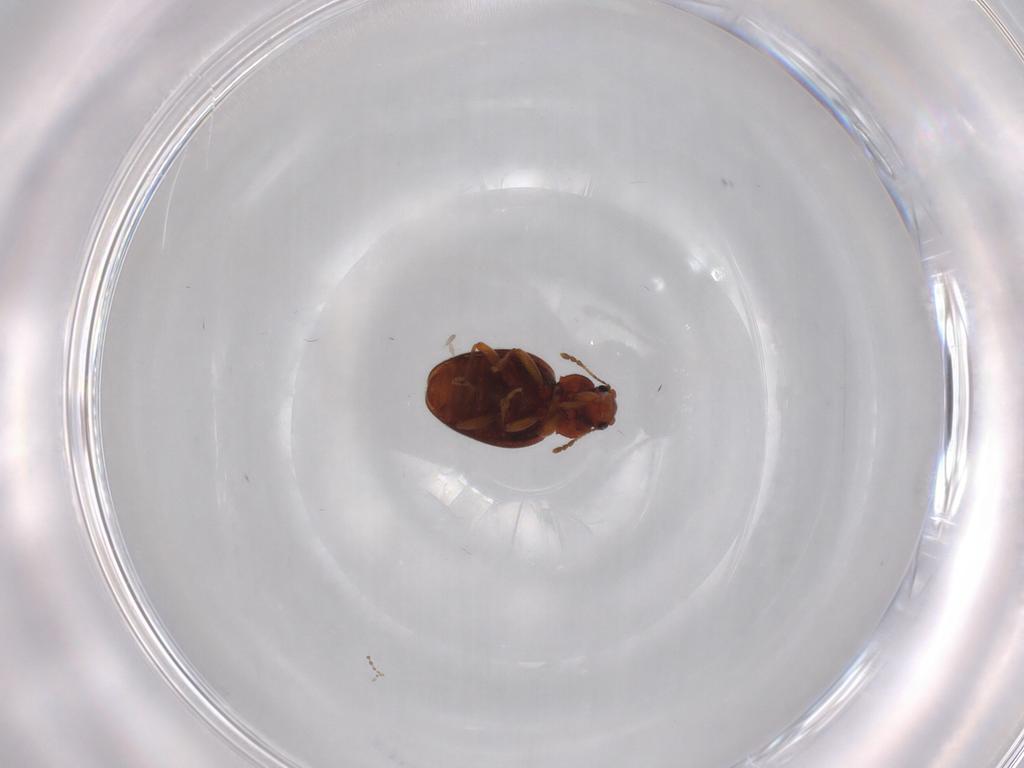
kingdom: Animalia
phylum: Arthropoda
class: Insecta
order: Coleoptera
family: Latridiidae
